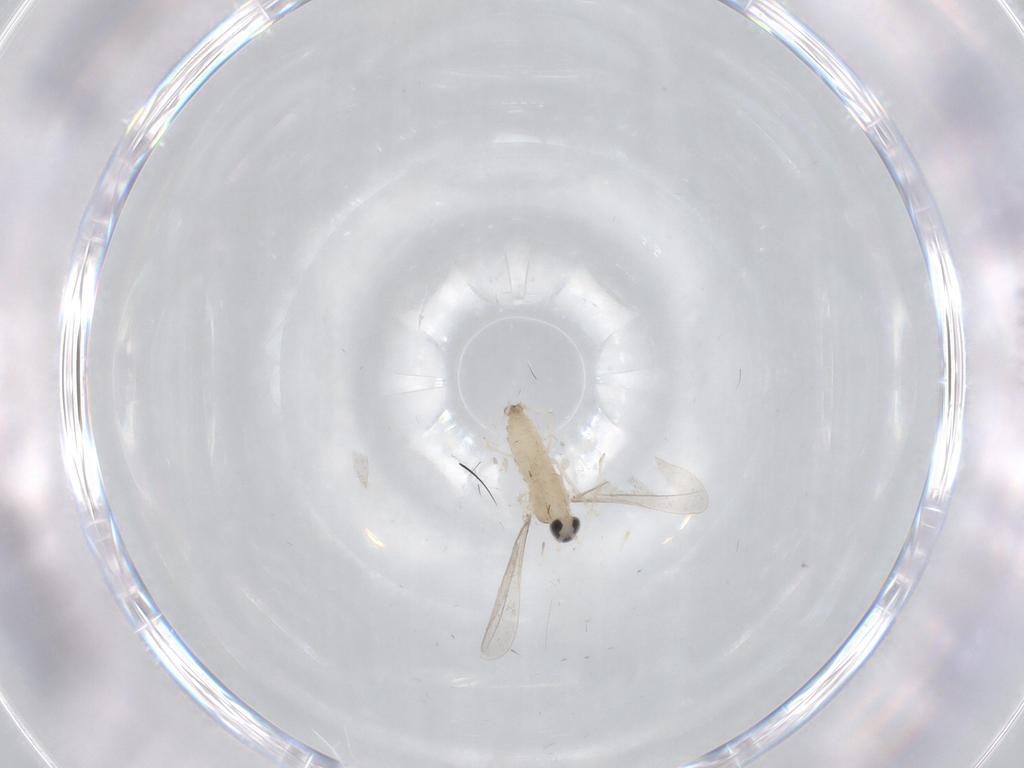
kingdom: Animalia
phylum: Arthropoda
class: Insecta
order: Diptera
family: Cecidomyiidae
